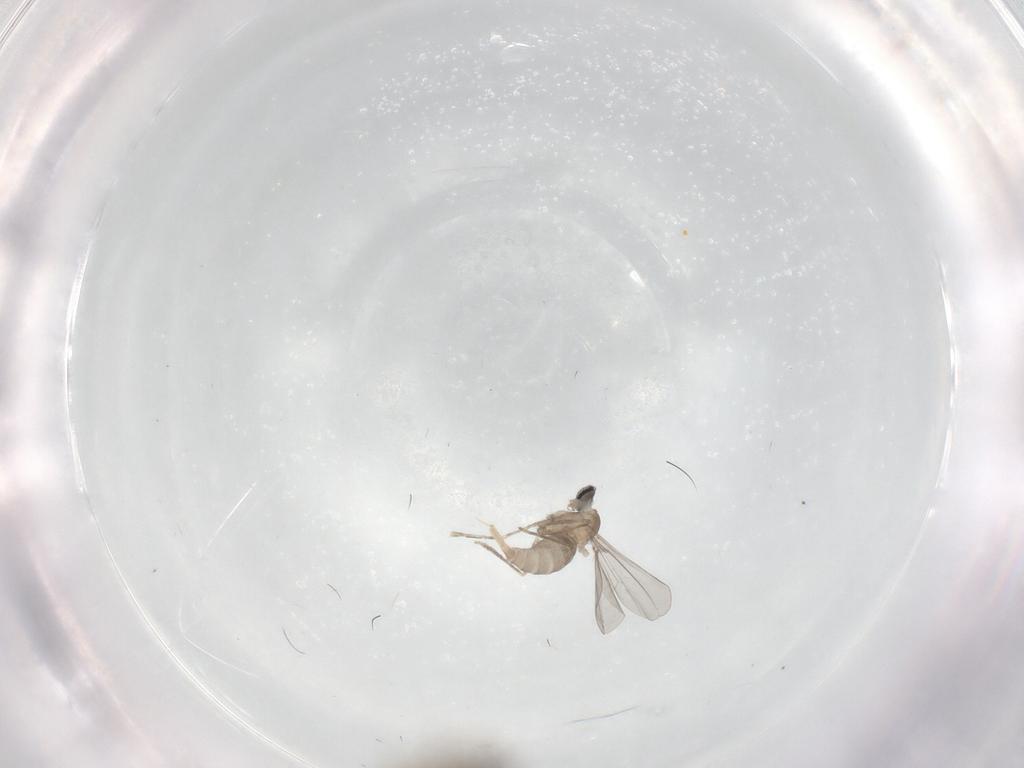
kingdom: Animalia
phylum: Arthropoda
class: Insecta
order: Diptera
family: Cecidomyiidae
